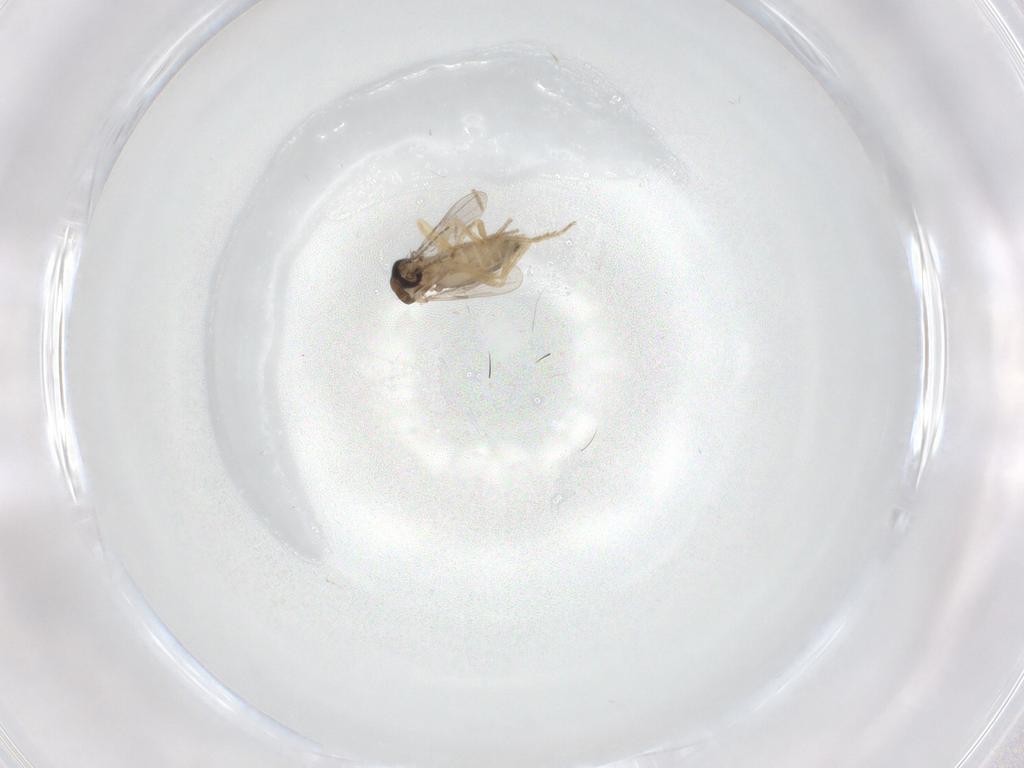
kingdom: Animalia
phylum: Arthropoda
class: Insecta
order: Diptera
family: Ceratopogonidae
